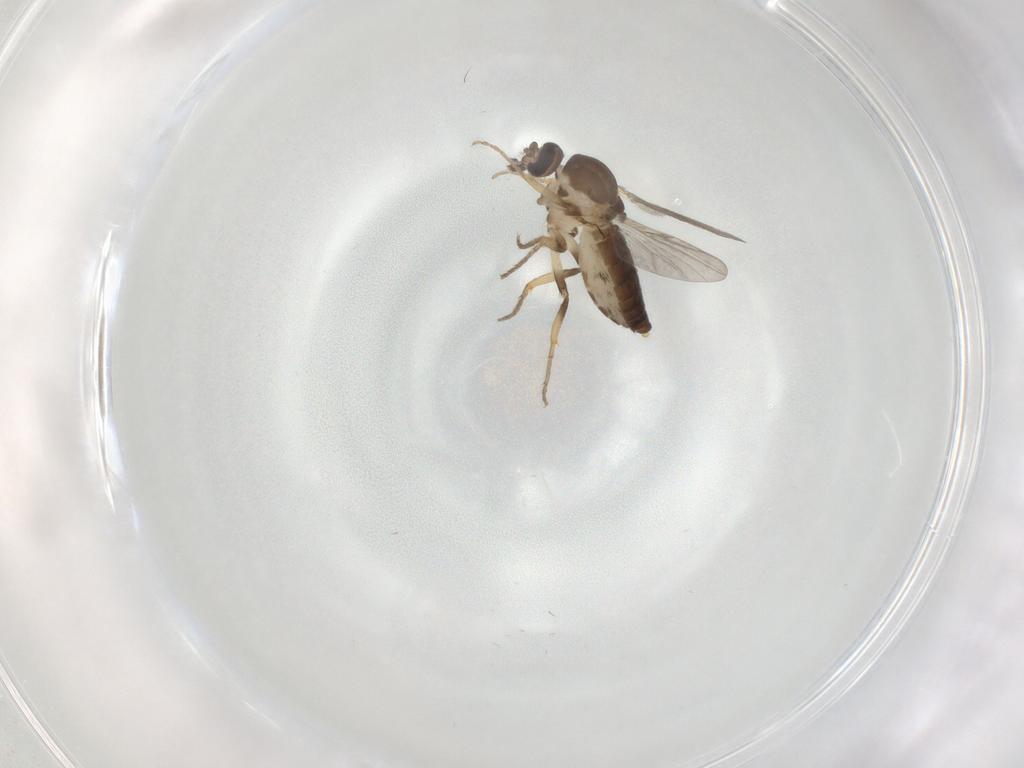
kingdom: Animalia
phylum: Arthropoda
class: Insecta
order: Diptera
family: Ceratopogonidae
